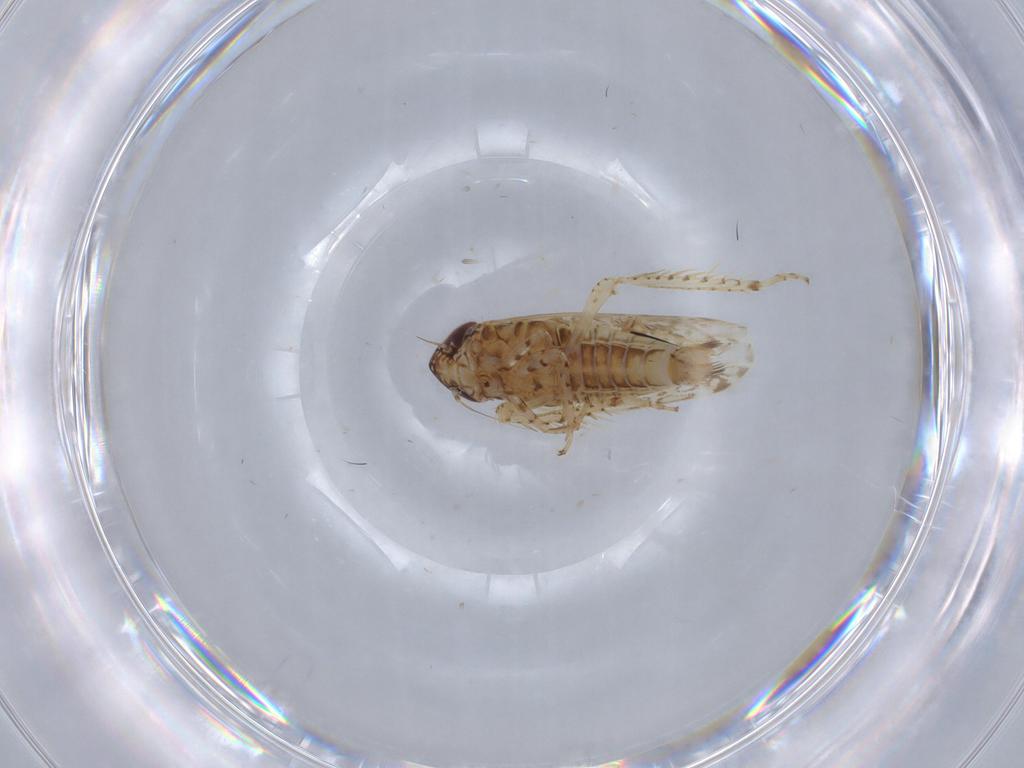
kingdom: Animalia
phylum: Arthropoda
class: Insecta
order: Hemiptera
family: Cicadellidae
